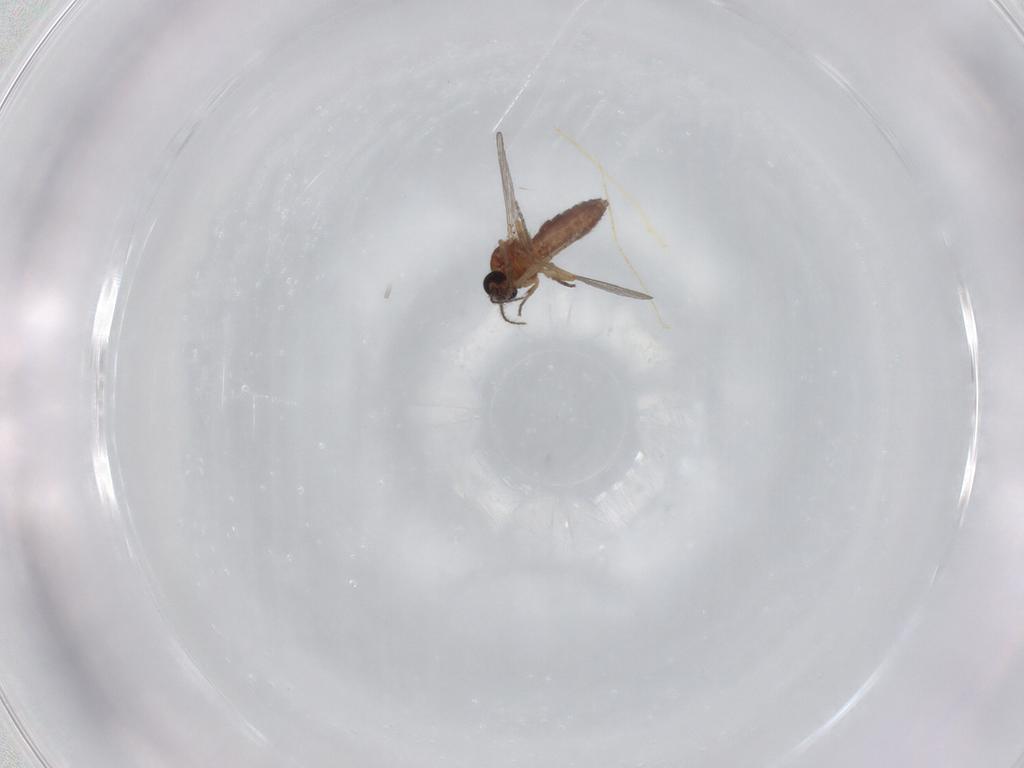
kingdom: Animalia
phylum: Arthropoda
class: Insecta
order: Diptera
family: Ceratopogonidae
